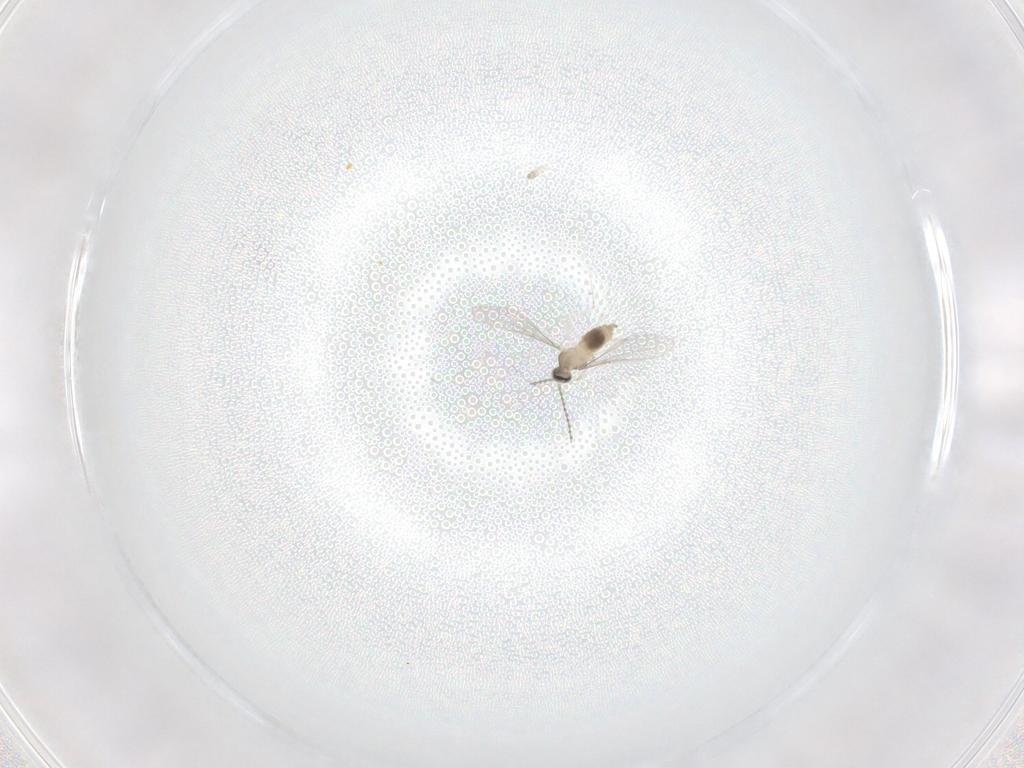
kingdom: Animalia
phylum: Arthropoda
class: Insecta
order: Diptera
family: Cecidomyiidae
